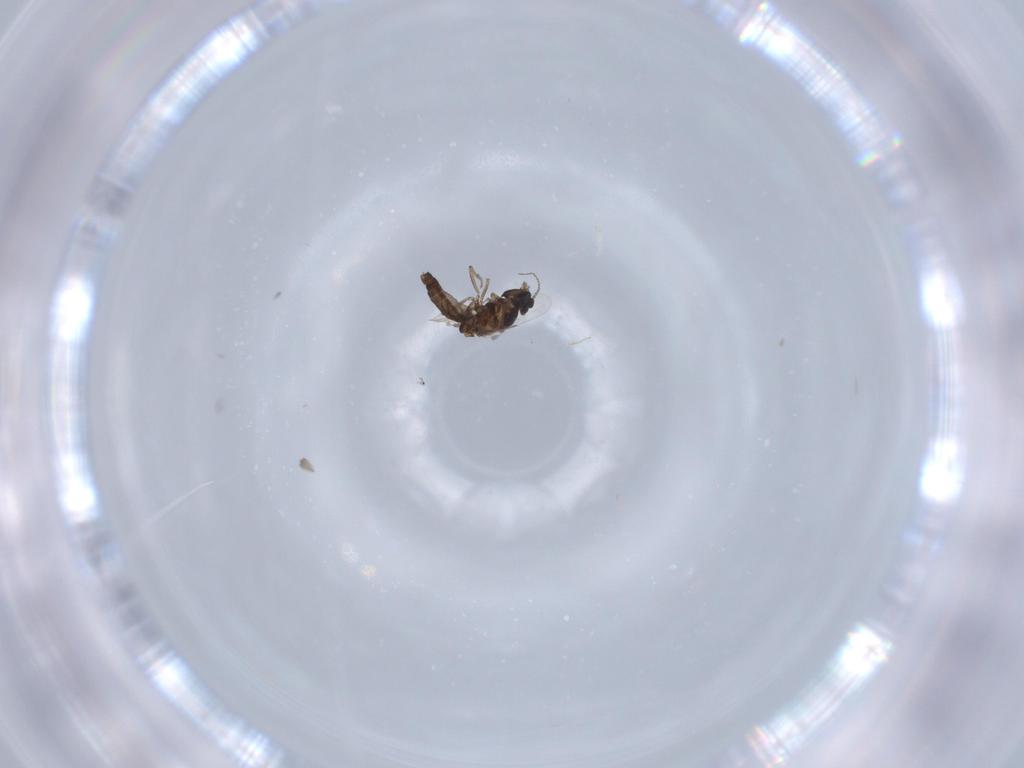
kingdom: Animalia
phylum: Arthropoda
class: Insecta
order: Diptera
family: Ceratopogonidae
